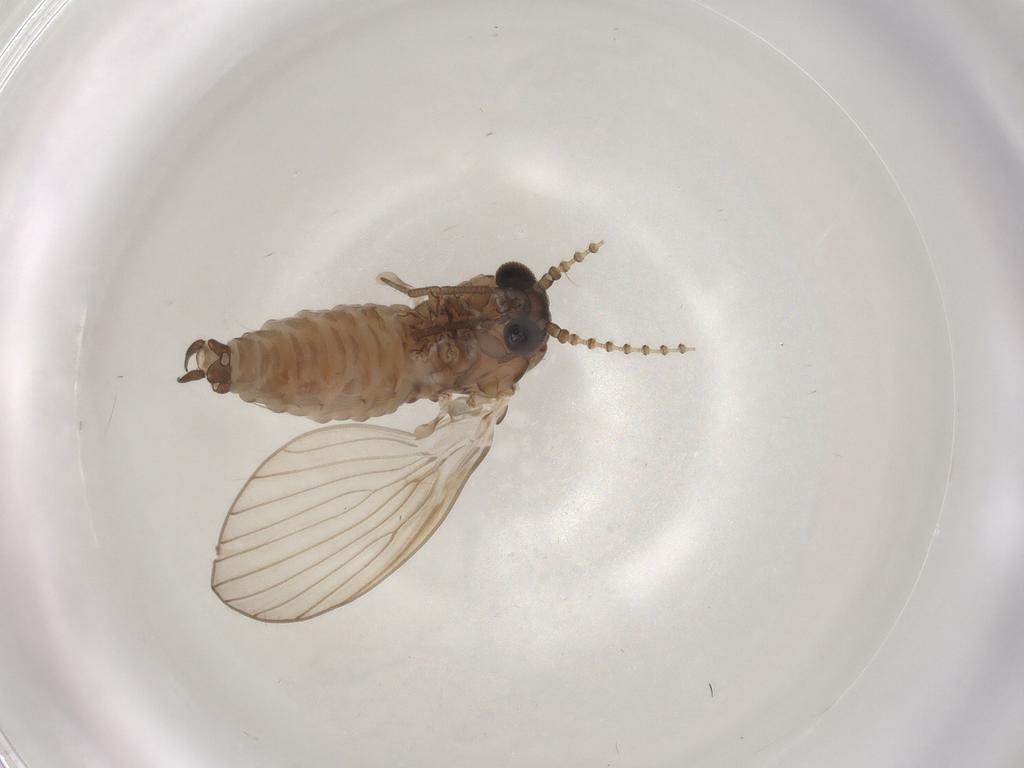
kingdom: Animalia
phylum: Arthropoda
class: Insecta
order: Diptera
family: Psychodidae
